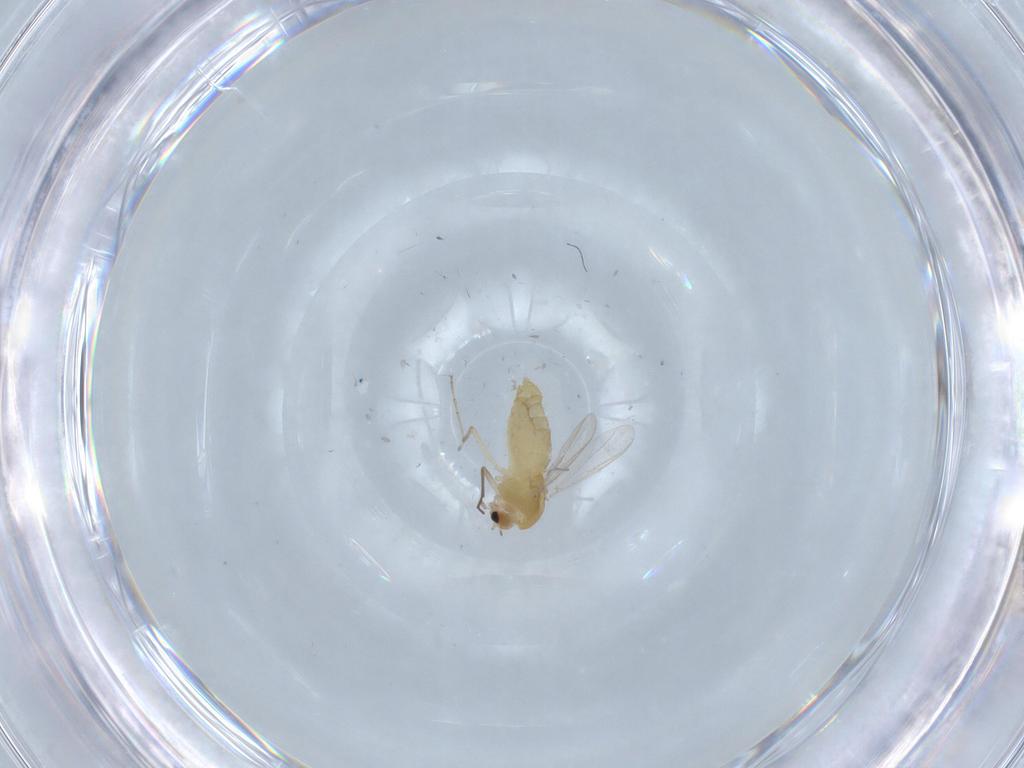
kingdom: Animalia
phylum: Arthropoda
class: Insecta
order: Diptera
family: Chironomidae
